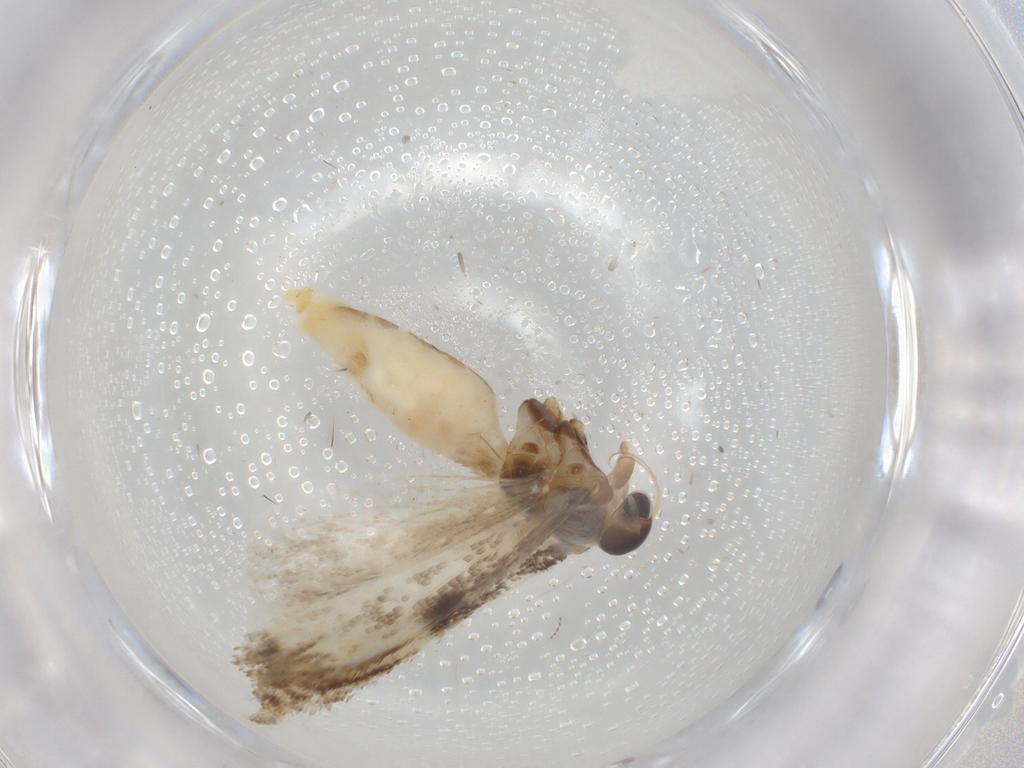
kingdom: Animalia
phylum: Arthropoda
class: Insecta
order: Lepidoptera
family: Gelechiidae
